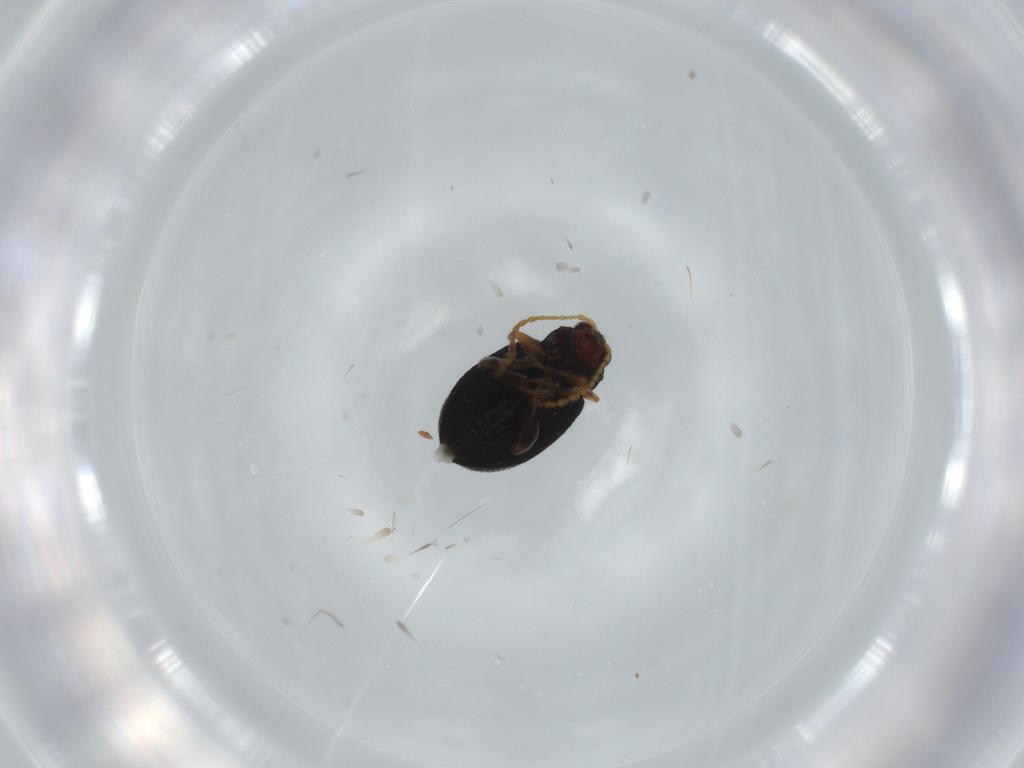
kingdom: Animalia
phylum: Arthropoda
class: Insecta
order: Coleoptera
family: Chrysomelidae
